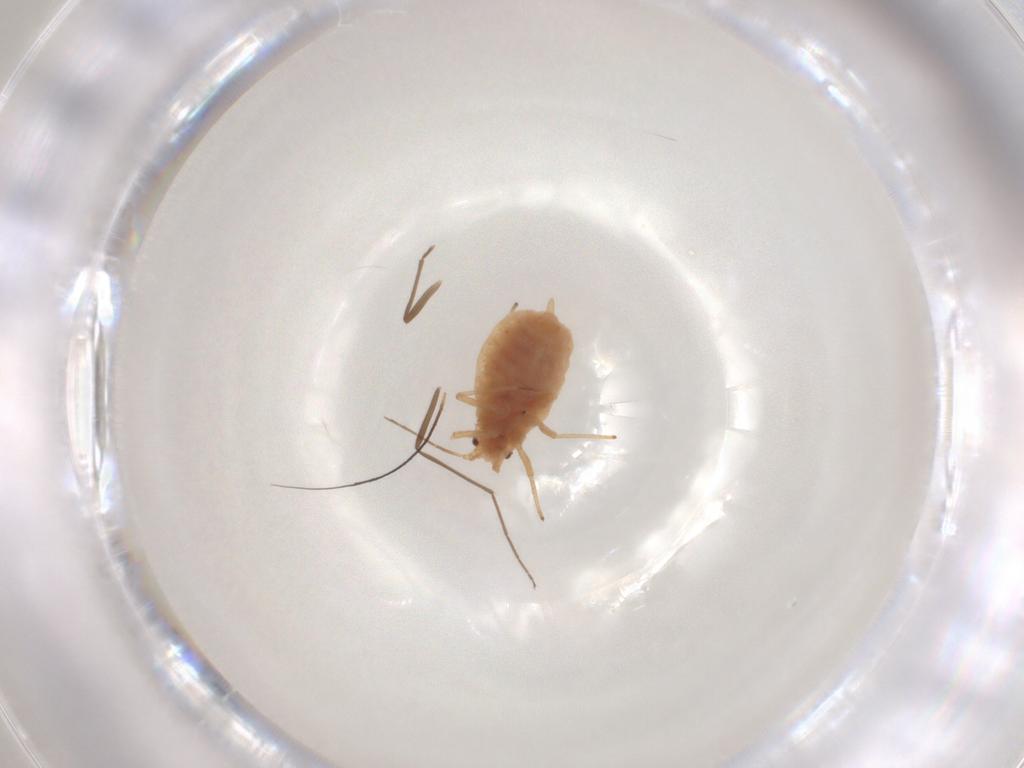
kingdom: Animalia
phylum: Arthropoda
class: Insecta
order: Hemiptera
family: Aphididae
